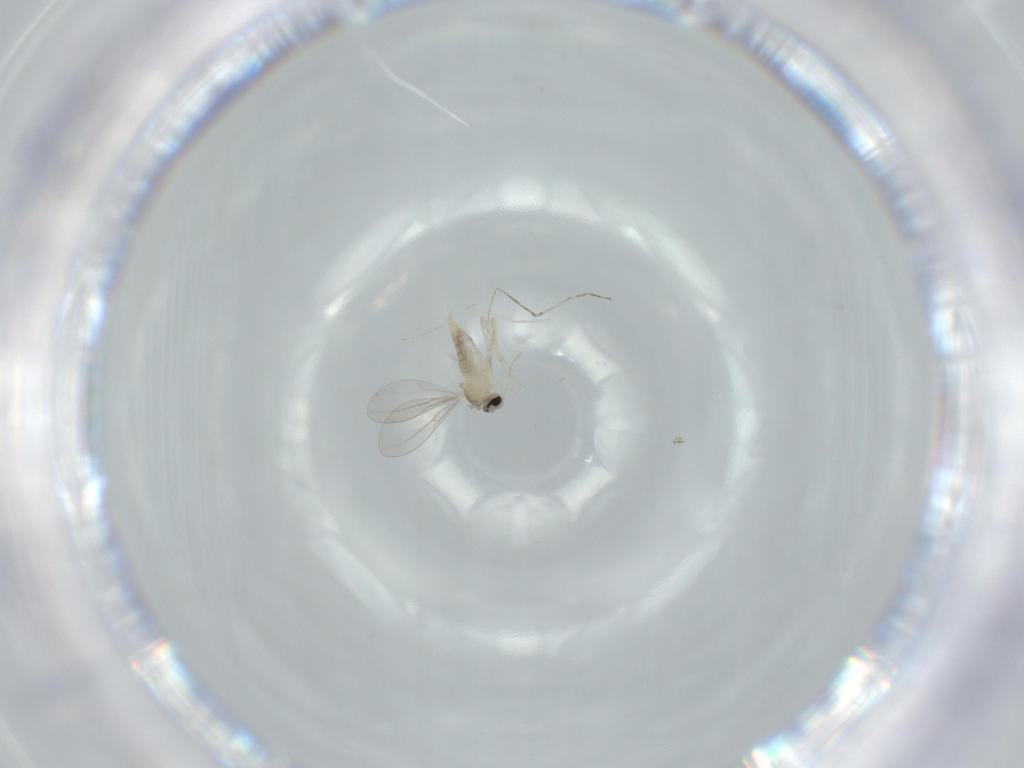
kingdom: Animalia
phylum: Arthropoda
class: Insecta
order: Diptera
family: Cecidomyiidae
